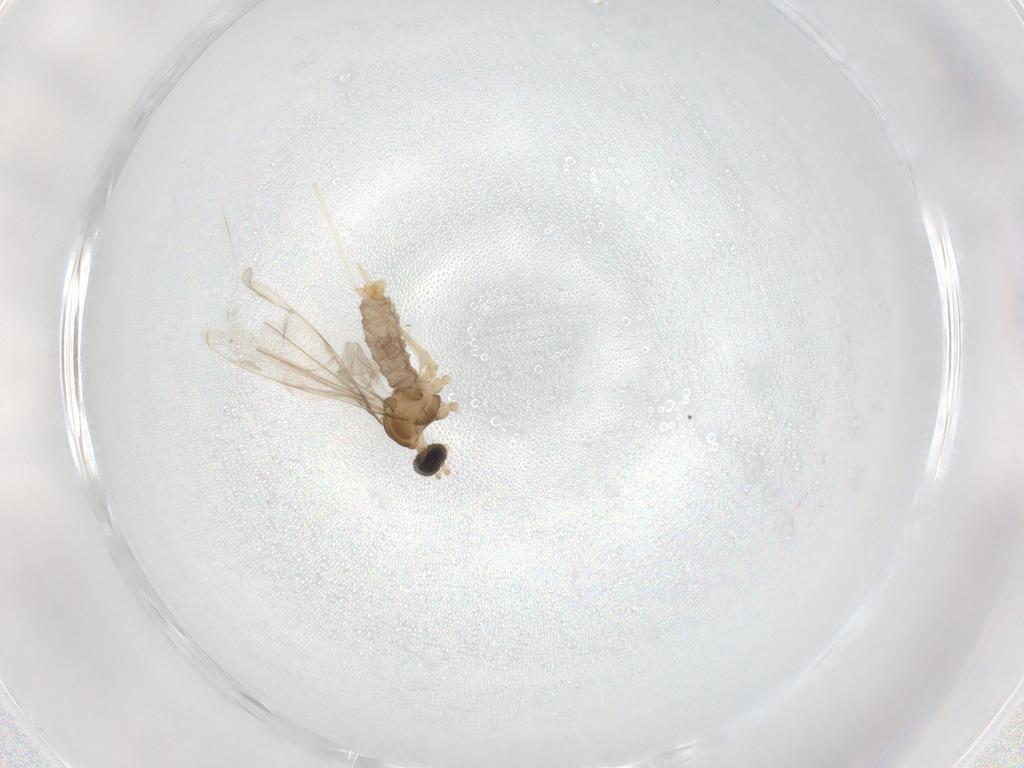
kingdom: Animalia
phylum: Arthropoda
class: Insecta
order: Diptera
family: Cecidomyiidae
